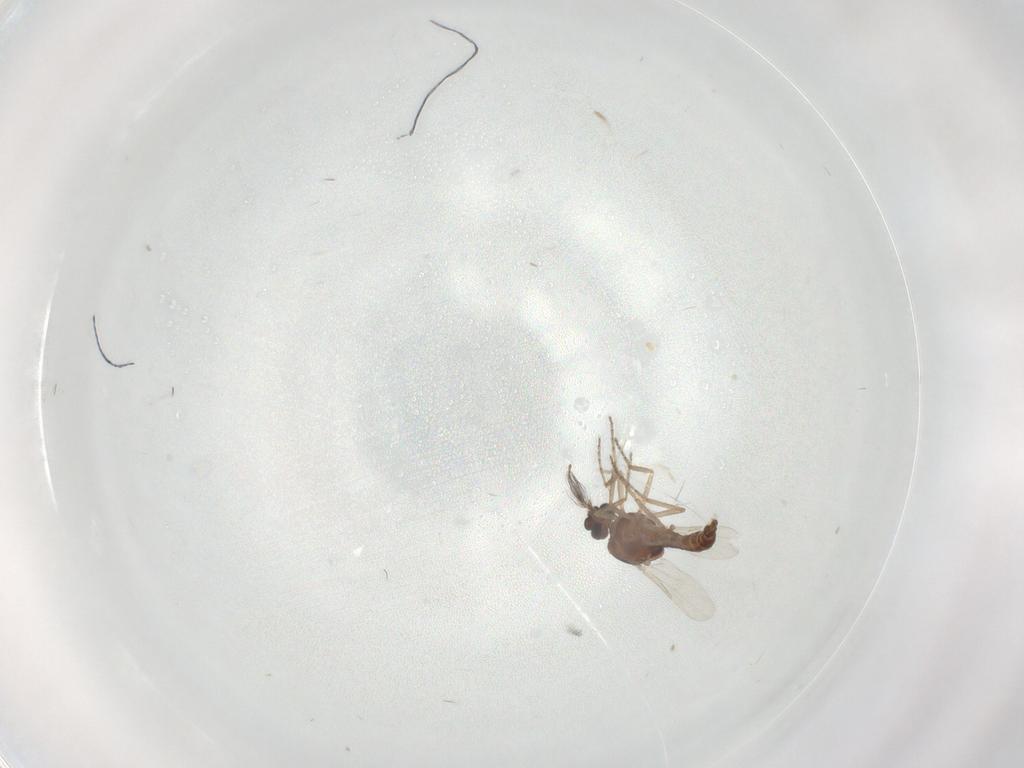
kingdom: Animalia
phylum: Arthropoda
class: Insecta
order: Diptera
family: Ceratopogonidae
